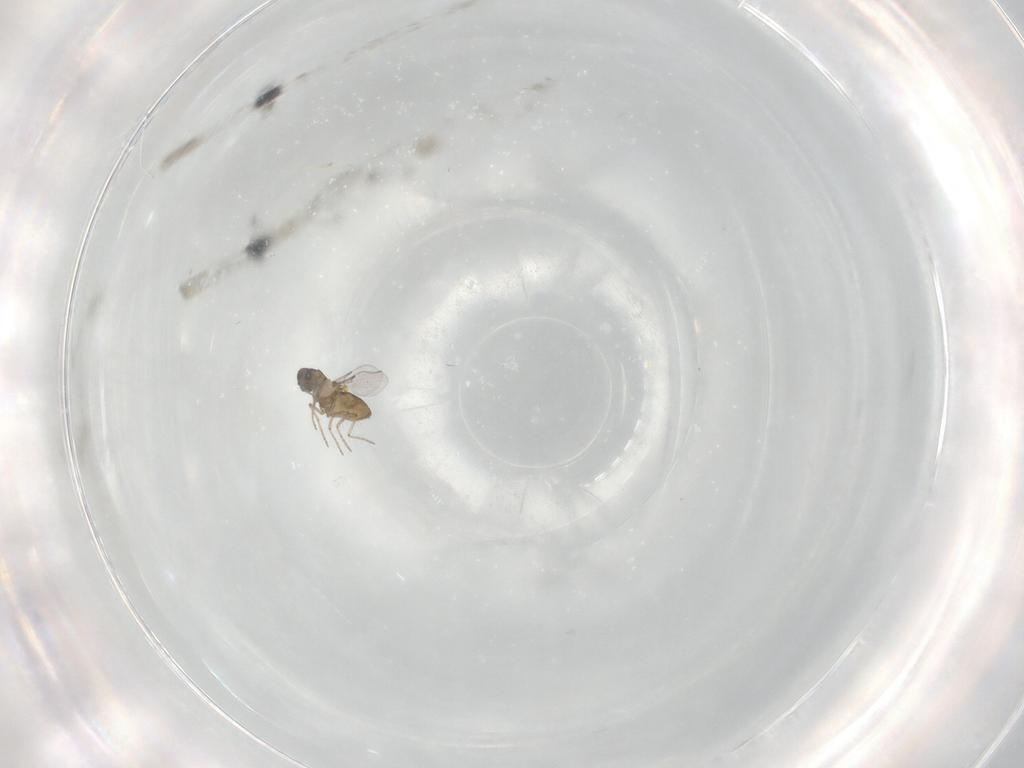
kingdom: Animalia
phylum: Arthropoda
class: Insecta
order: Diptera
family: Ceratopogonidae
